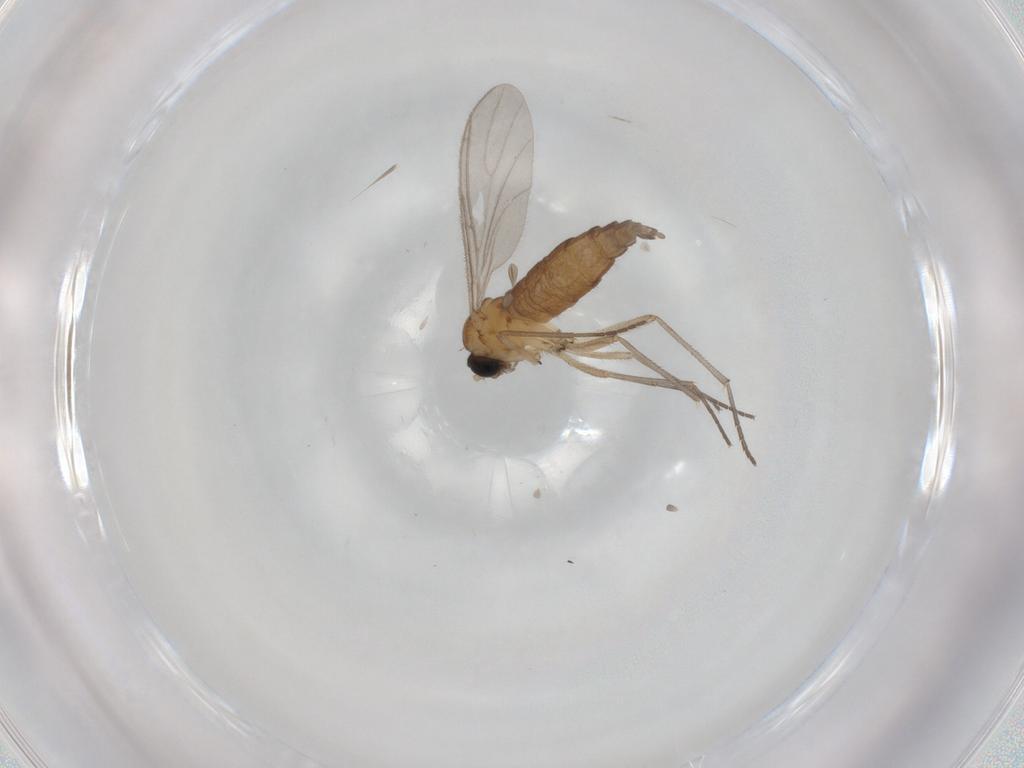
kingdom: Animalia
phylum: Arthropoda
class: Insecta
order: Diptera
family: Sciaridae
